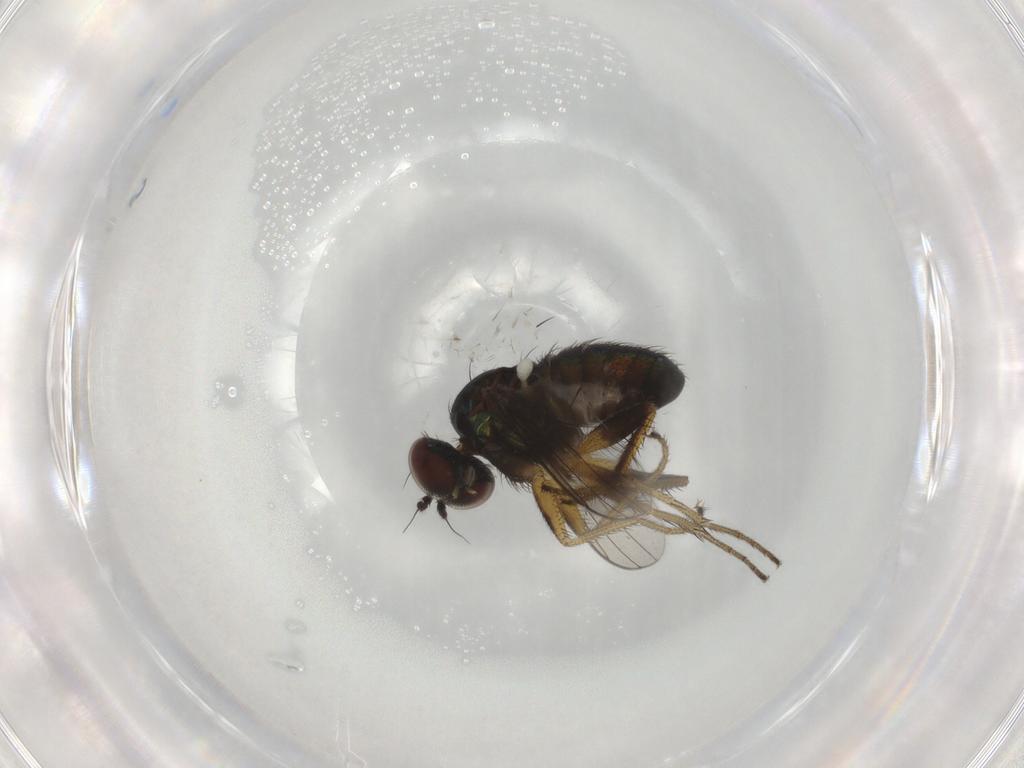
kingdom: Animalia
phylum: Arthropoda
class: Insecta
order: Diptera
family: Dolichopodidae
